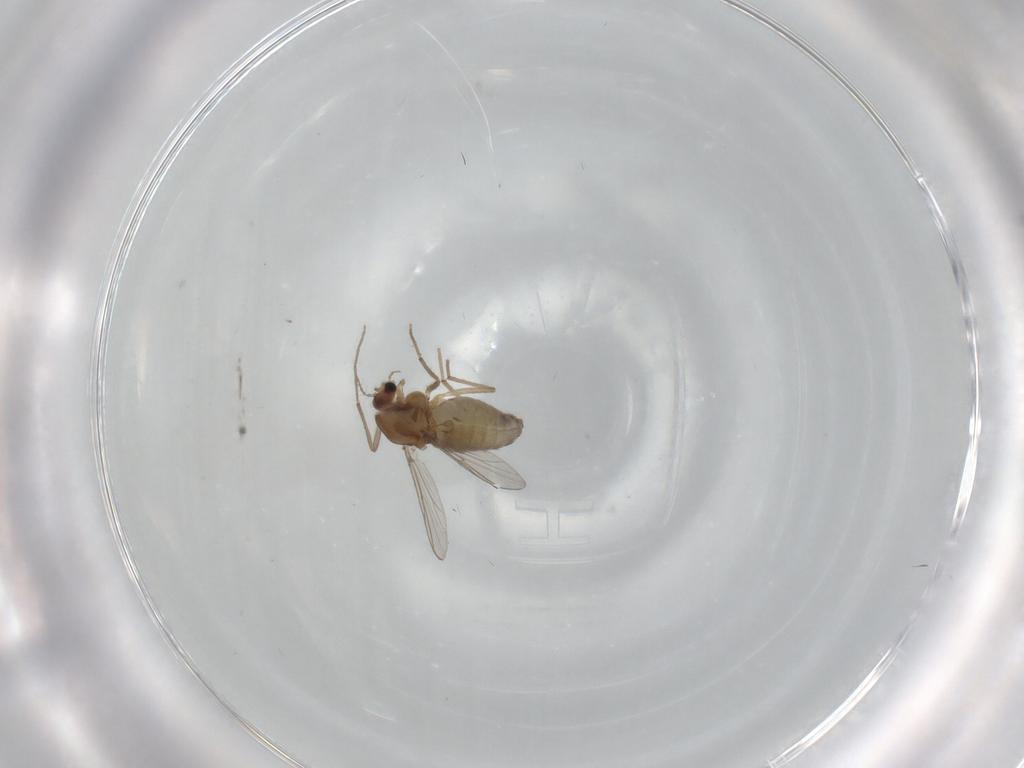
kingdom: Animalia
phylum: Arthropoda
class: Insecta
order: Diptera
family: Chironomidae
